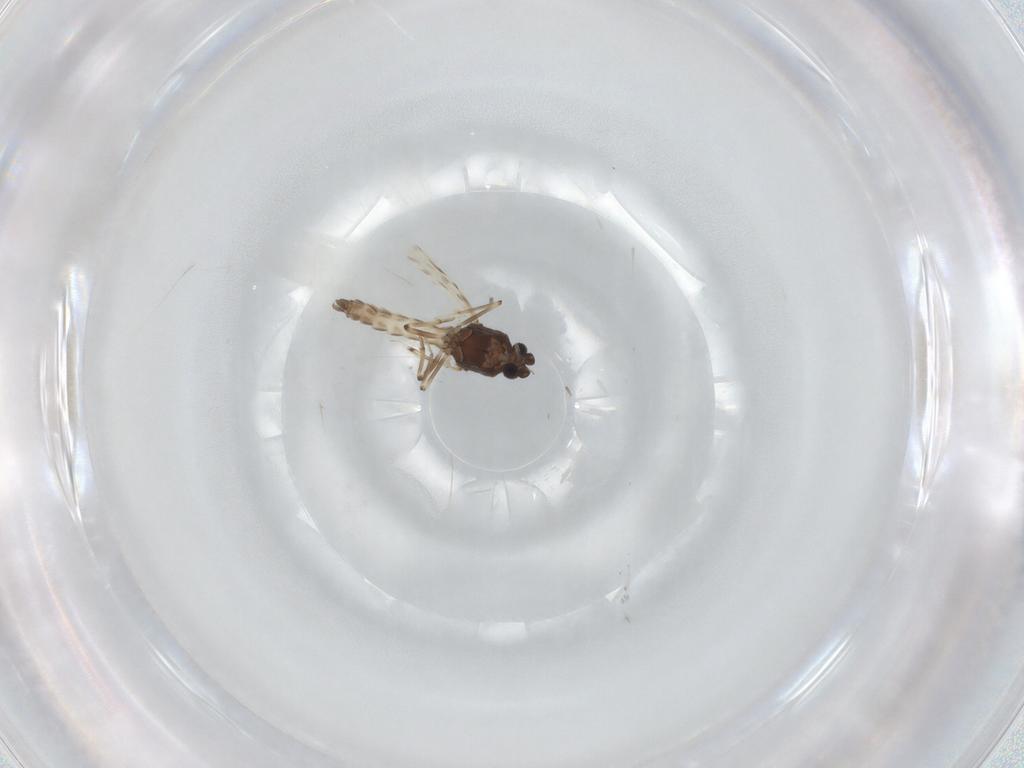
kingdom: Animalia
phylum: Arthropoda
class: Insecta
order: Diptera
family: Ceratopogonidae
